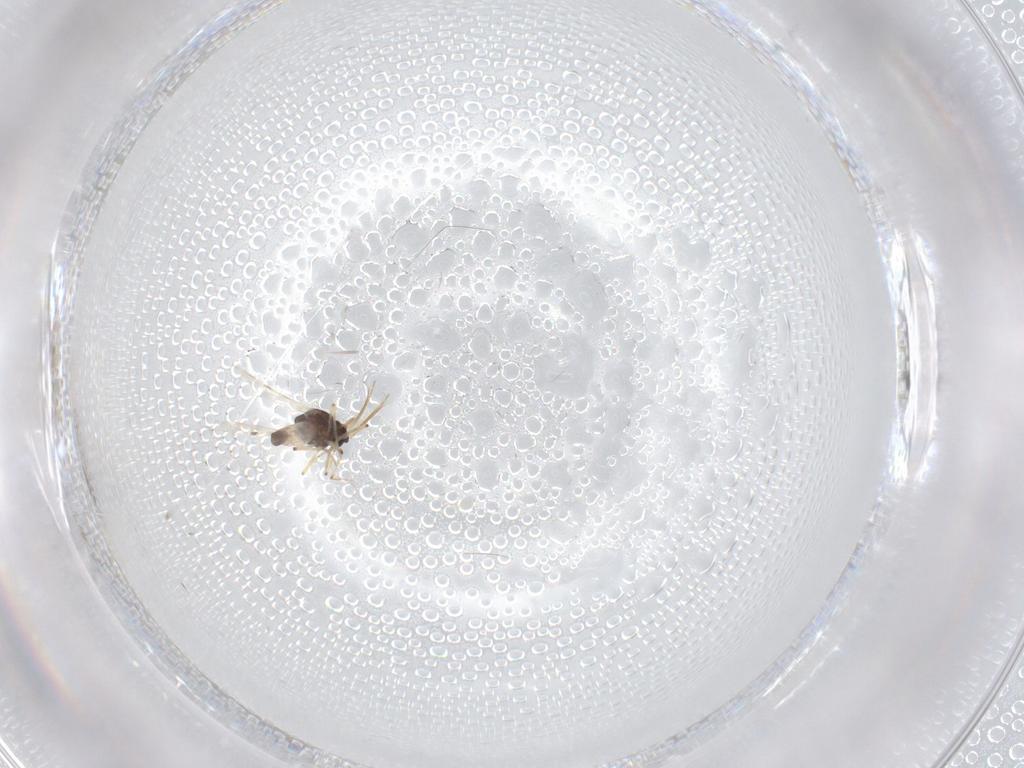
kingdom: Animalia
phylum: Arthropoda
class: Insecta
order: Diptera
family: Ceratopogonidae
